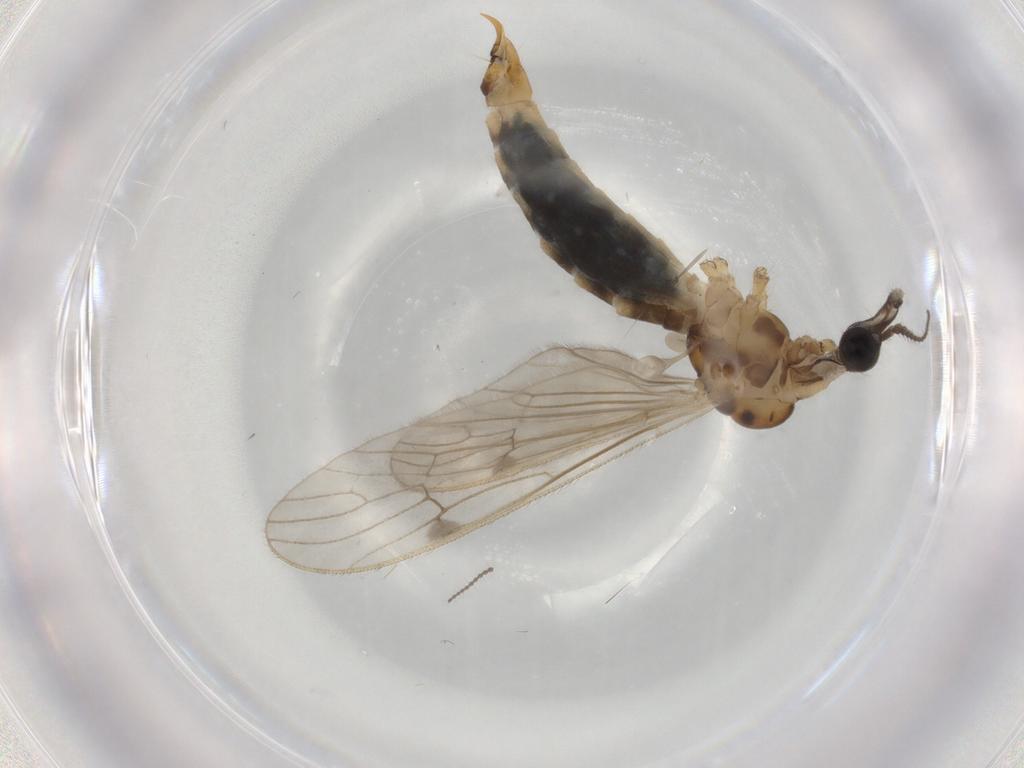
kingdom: Animalia
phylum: Arthropoda
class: Insecta
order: Diptera
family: Limoniidae
